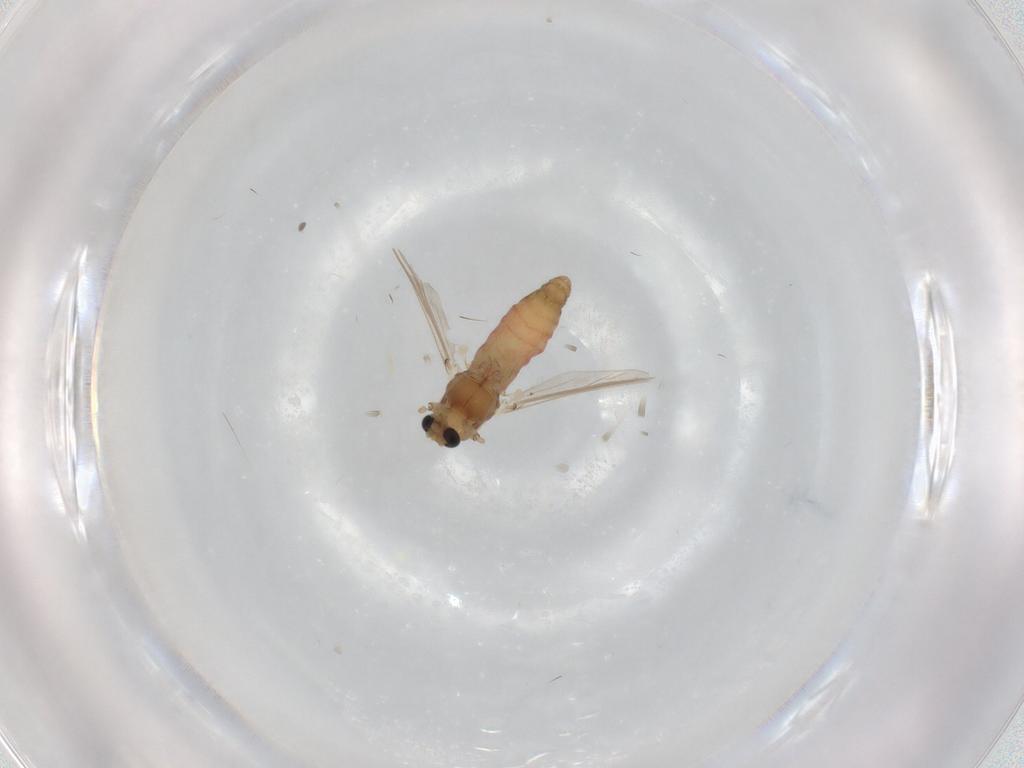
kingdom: Animalia
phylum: Arthropoda
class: Insecta
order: Diptera
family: Chironomidae
